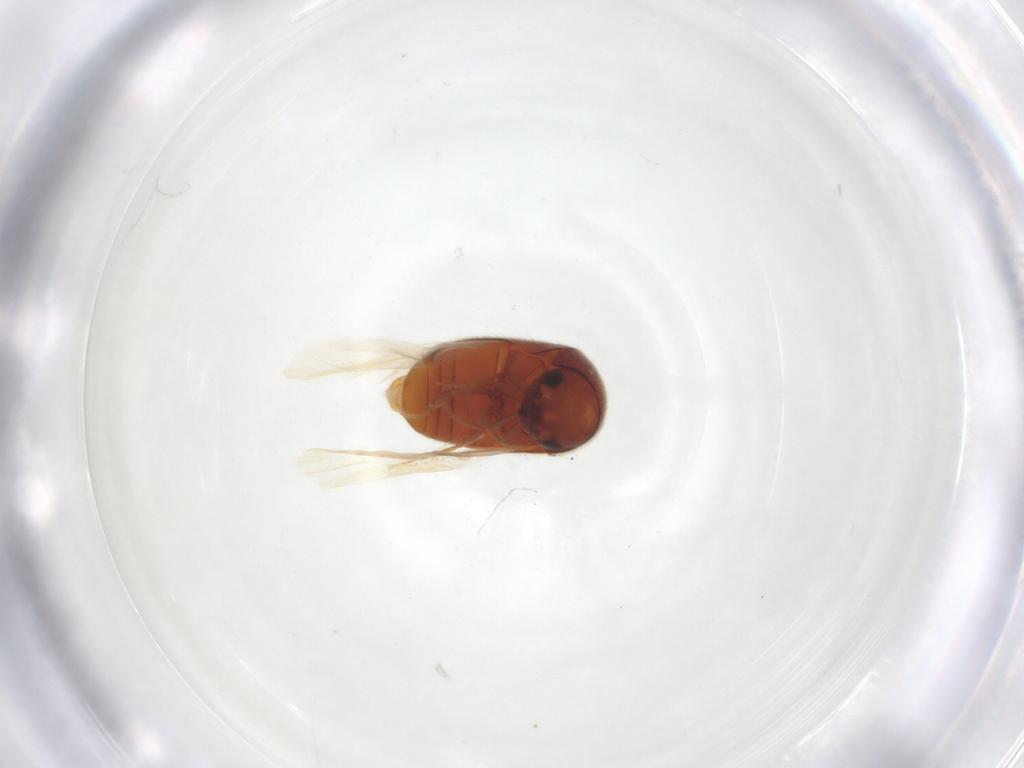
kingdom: Animalia
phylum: Arthropoda
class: Insecta
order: Coleoptera
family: Ptinidae
